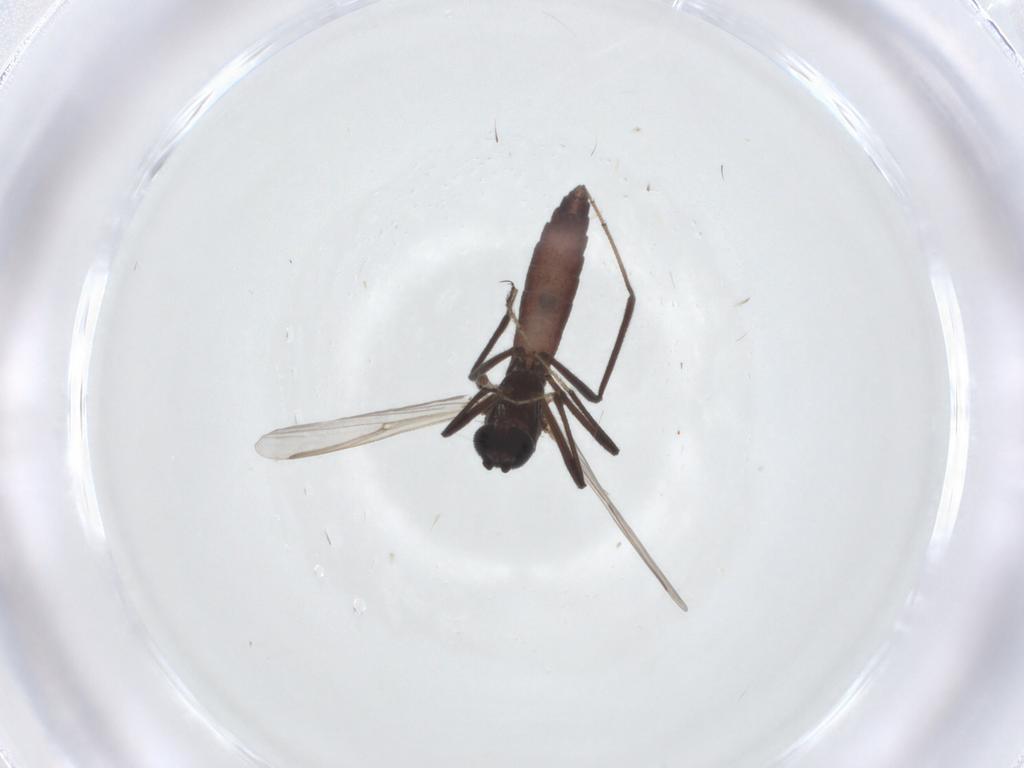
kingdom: Animalia
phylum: Arthropoda
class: Insecta
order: Diptera
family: Ceratopogonidae
